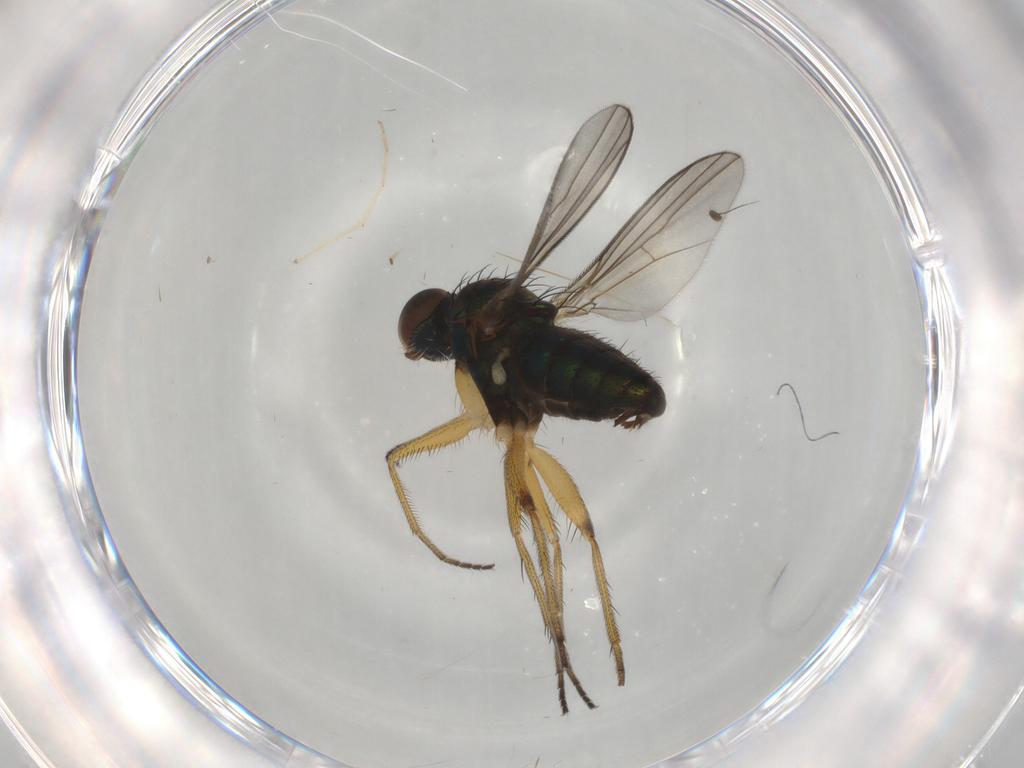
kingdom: Animalia
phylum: Arthropoda
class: Insecta
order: Diptera
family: Chironomidae
